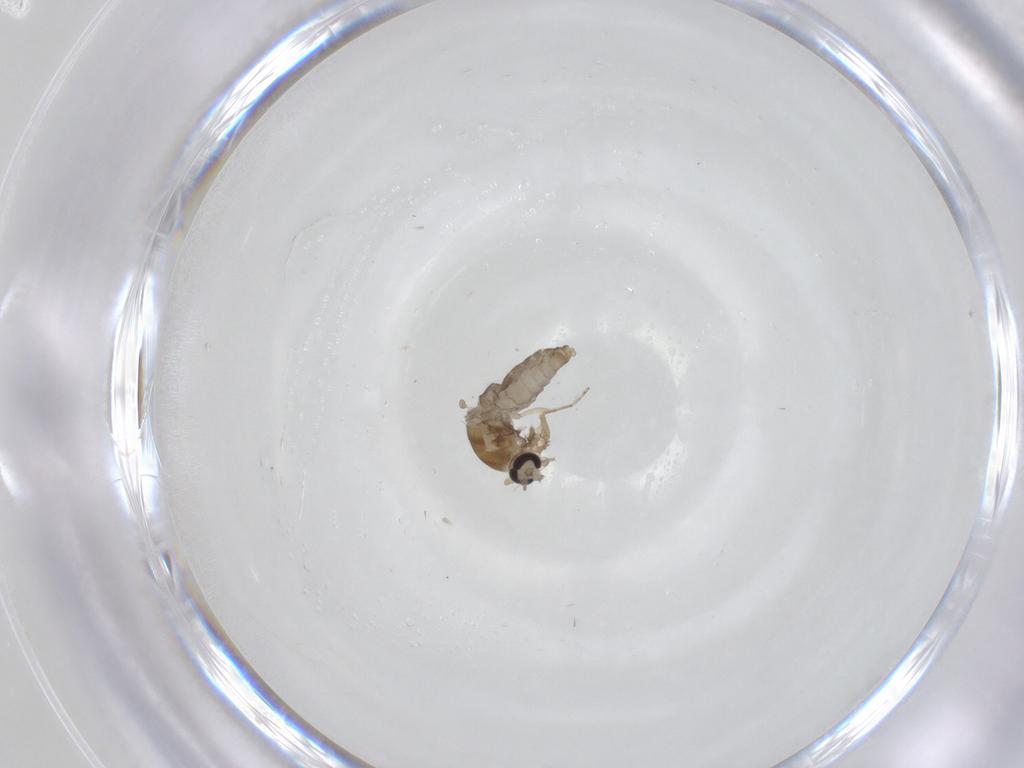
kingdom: Animalia
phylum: Arthropoda
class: Insecta
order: Diptera
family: Ceratopogonidae
